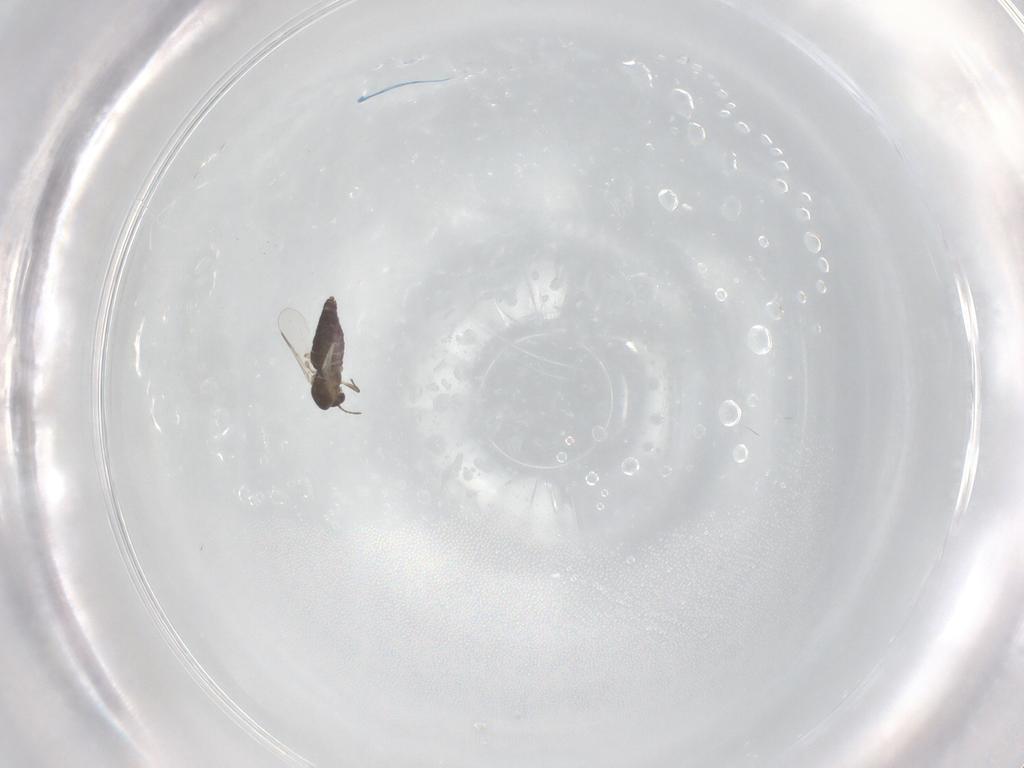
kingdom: Animalia
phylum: Arthropoda
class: Insecta
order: Diptera
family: Chironomidae
